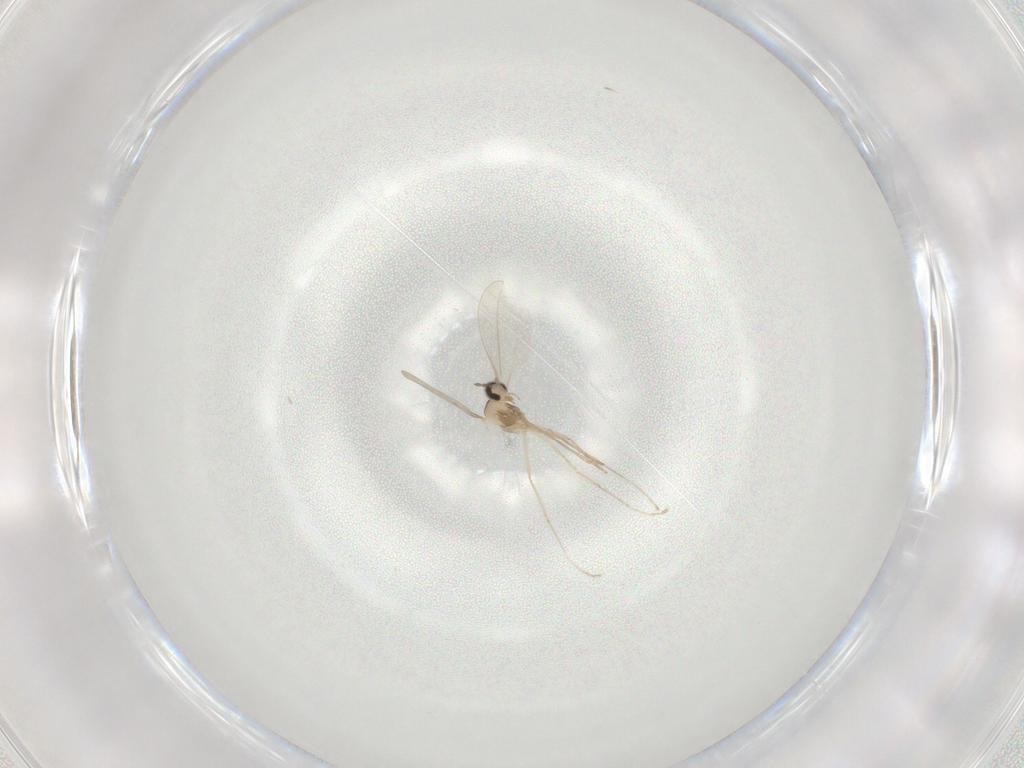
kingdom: Animalia
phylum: Arthropoda
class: Insecta
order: Diptera
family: Cecidomyiidae
